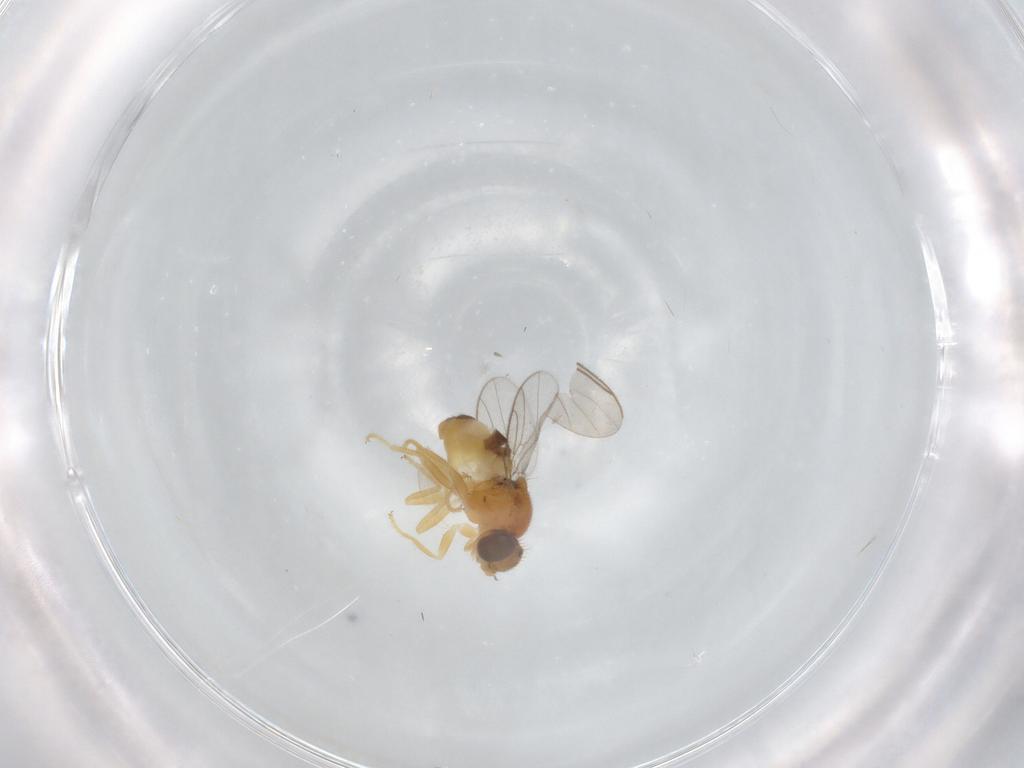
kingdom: Animalia
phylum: Arthropoda
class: Insecta
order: Diptera
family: Chloropidae
